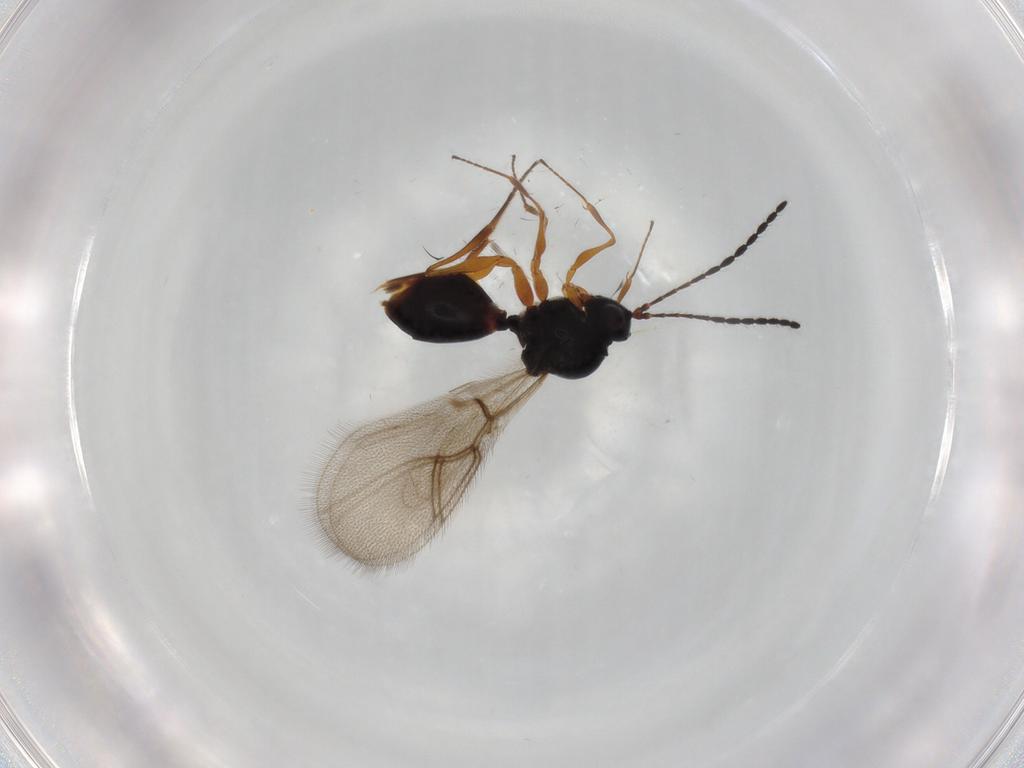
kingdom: Animalia
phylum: Arthropoda
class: Insecta
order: Hymenoptera
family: Figitidae
